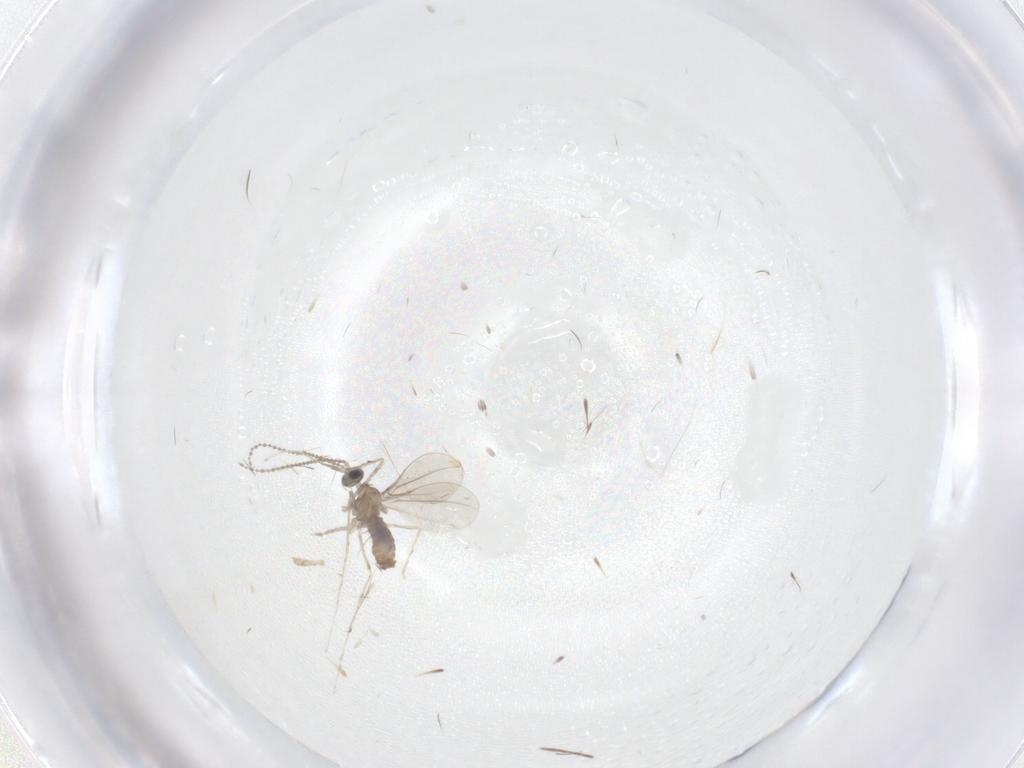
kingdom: Animalia
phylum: Arthropoda
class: Insecta
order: Diptera
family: Cecidomyiidae
